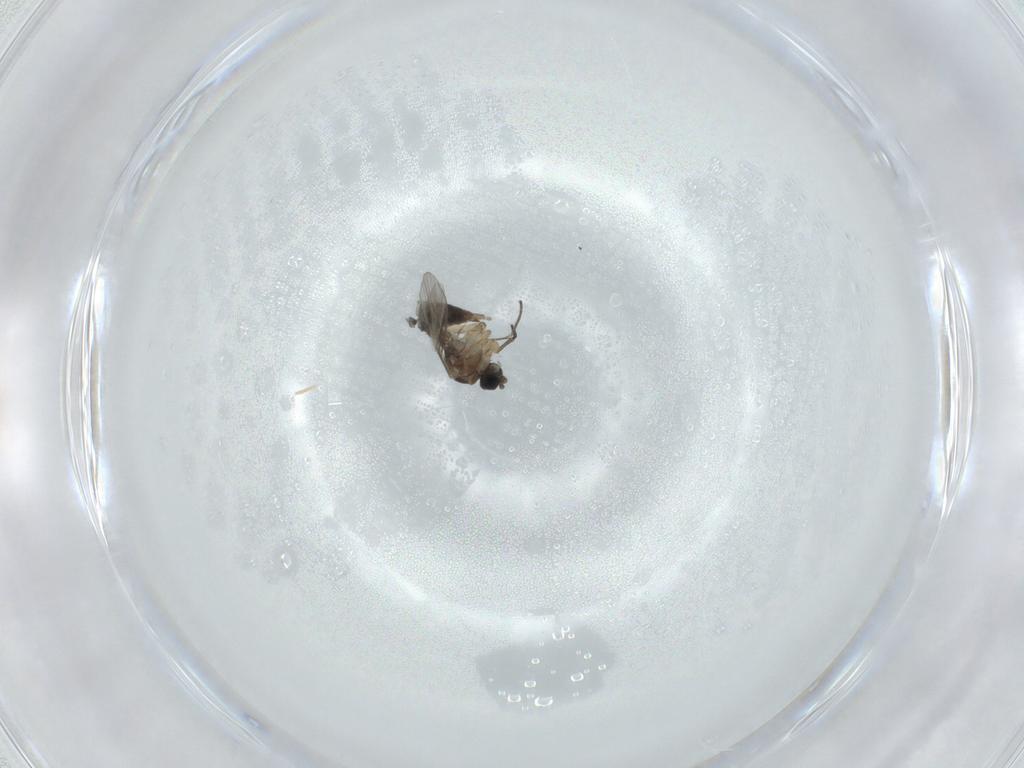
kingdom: Animalia
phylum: Arthropoda
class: Insecta
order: Diptera
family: Sciaridae
